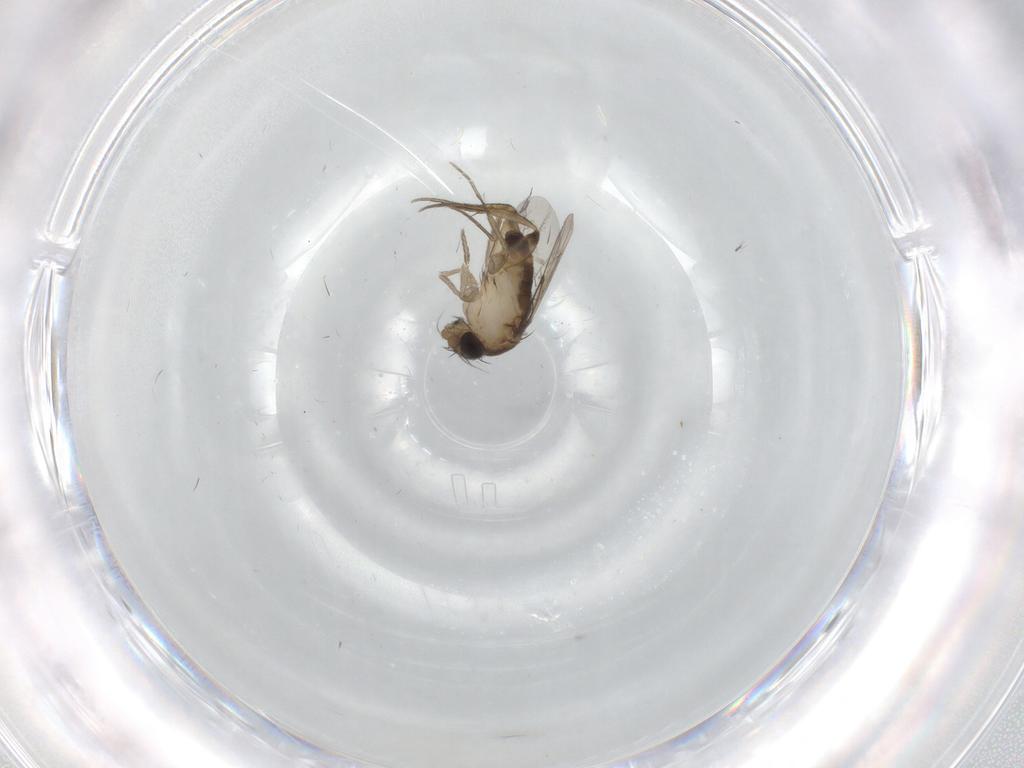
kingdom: Animalia
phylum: Arthropoda
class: Insecta
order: Diptera
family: Phoridae
